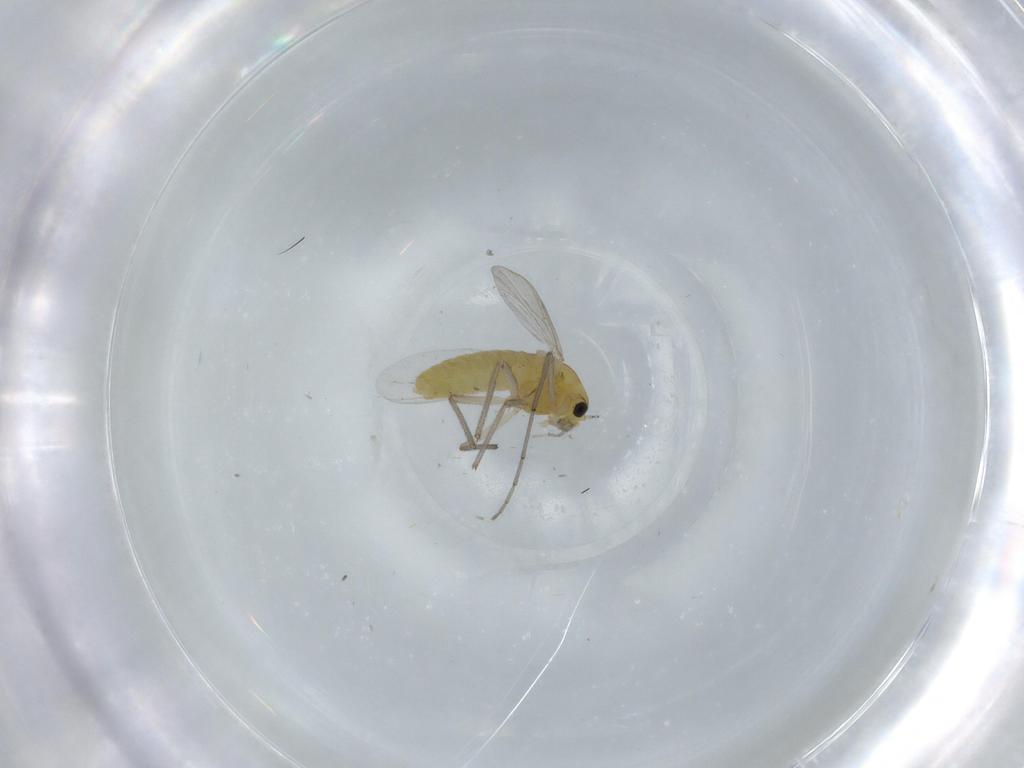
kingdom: Animalia
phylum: Arthropoda
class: Insecta
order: Diptera
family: Chironomidae
